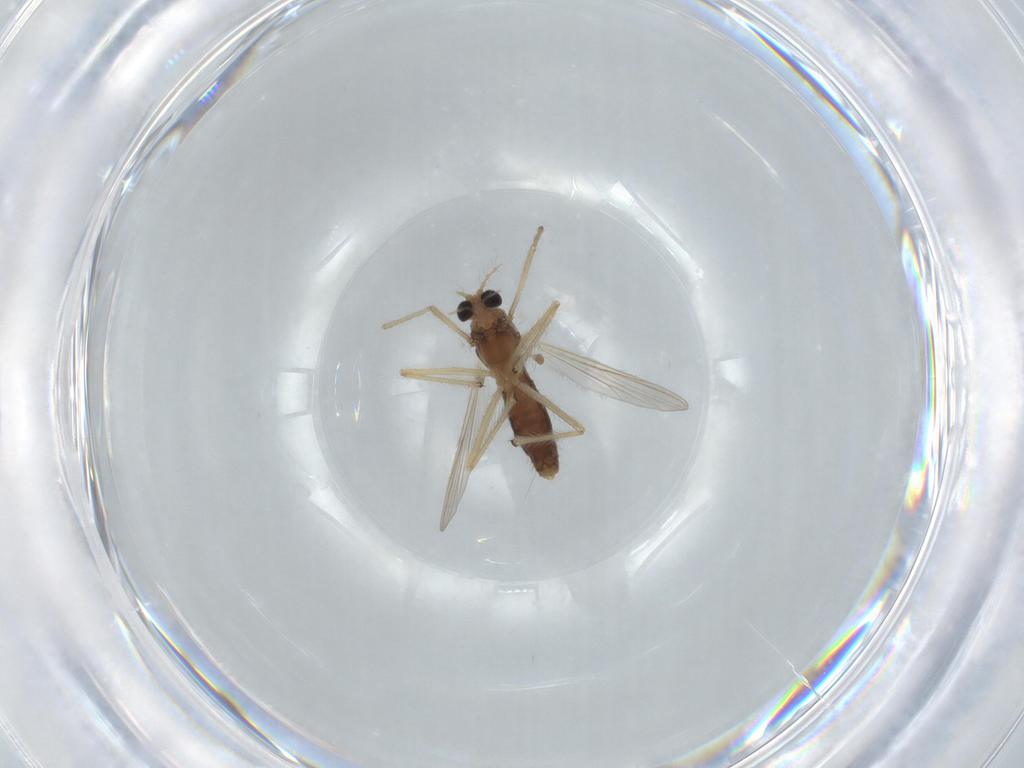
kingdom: Animalia
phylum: Arthropoda
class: Insecta
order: Diptera
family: Chironomidae
